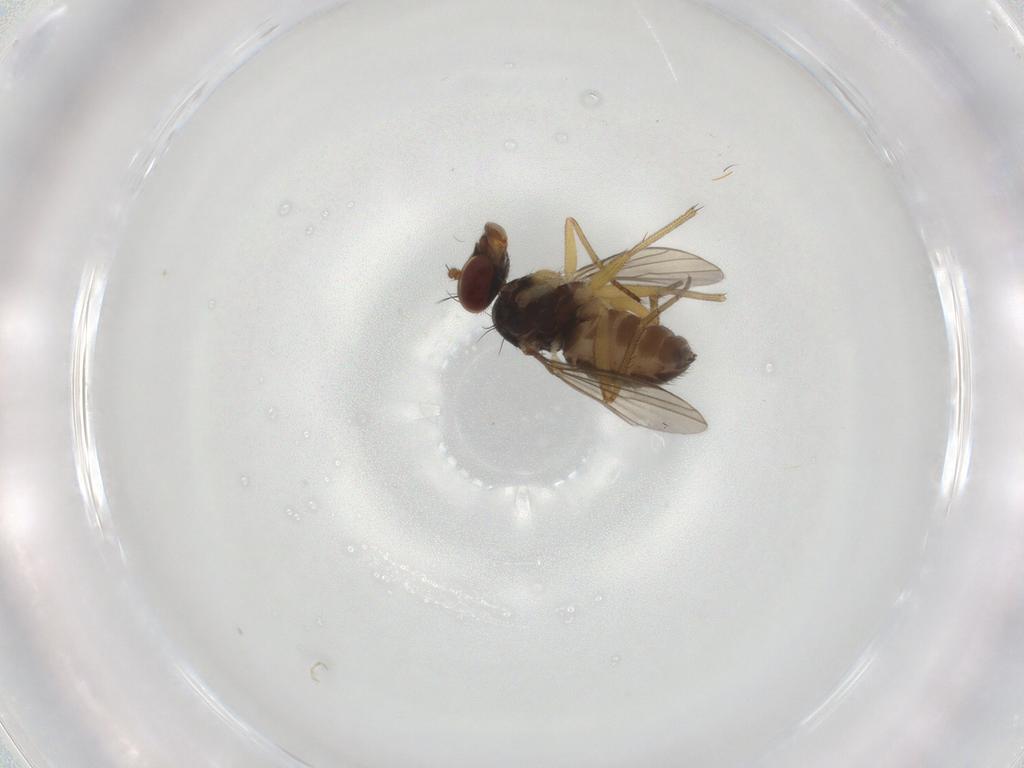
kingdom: Animalia
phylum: Arthropoda
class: Insecta
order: Diptera
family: Dolichopodidae
